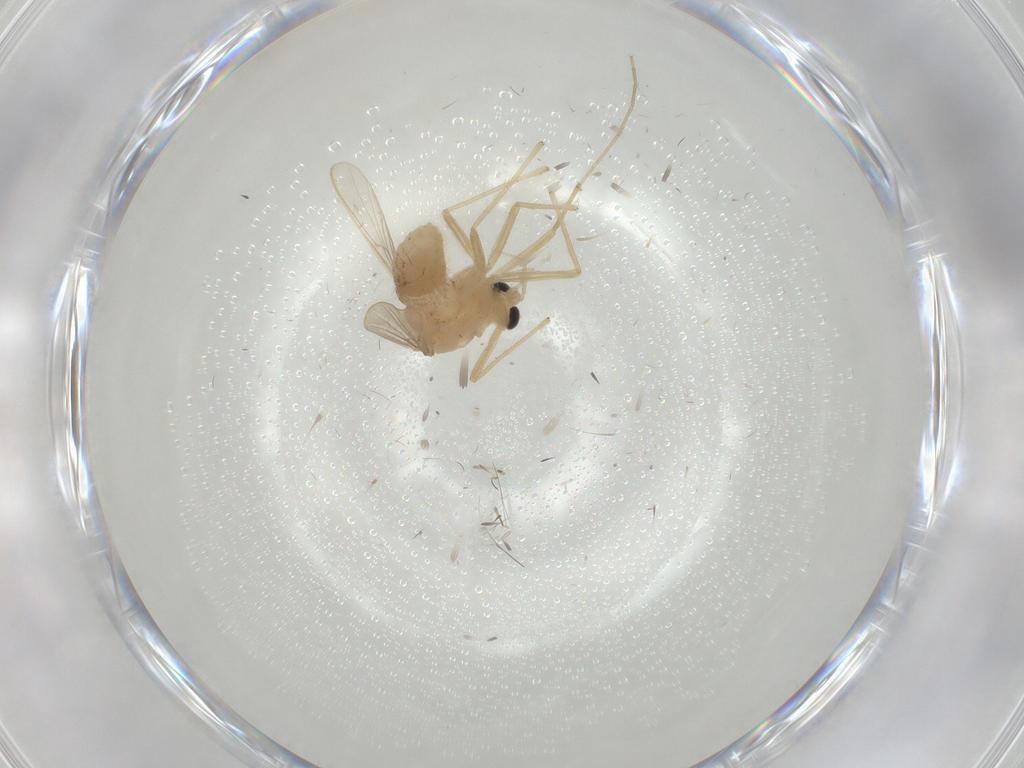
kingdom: Animalia
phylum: Arthropoda
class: Insecta
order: Diptera
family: Chironomidae
